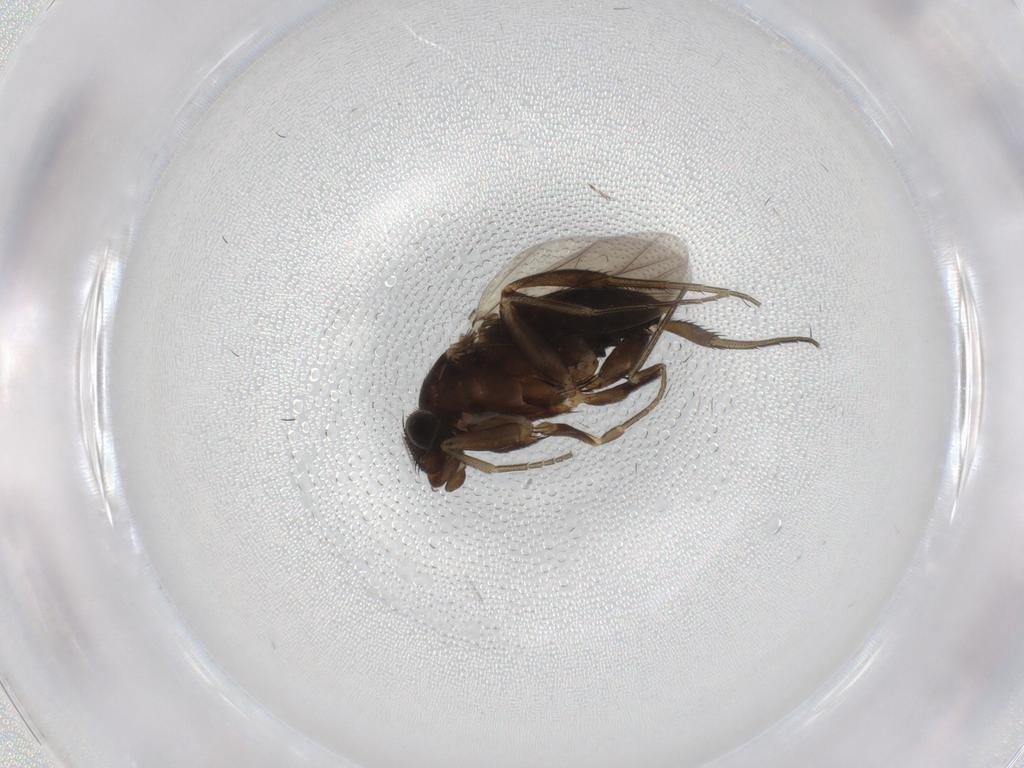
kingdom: Animalia
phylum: Arthropoda
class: Insecta
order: Diptera
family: Phoridae
